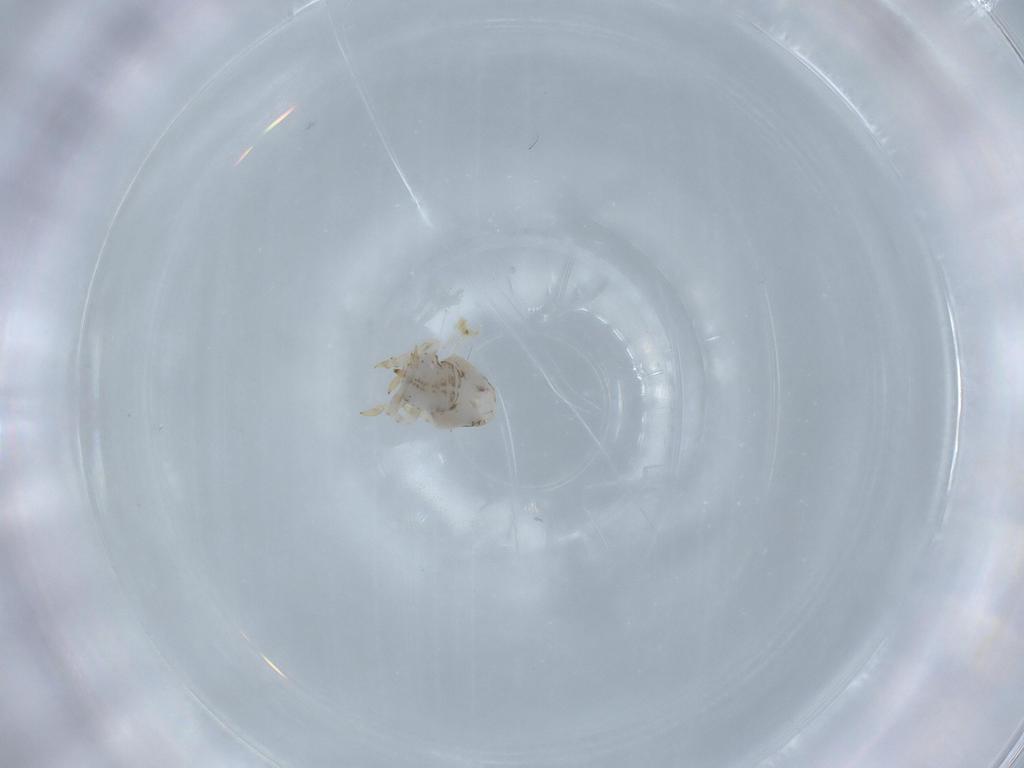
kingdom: Animalia
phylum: Arthropoda
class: Insecta
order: Hemiptera
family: Acanaloniidae
